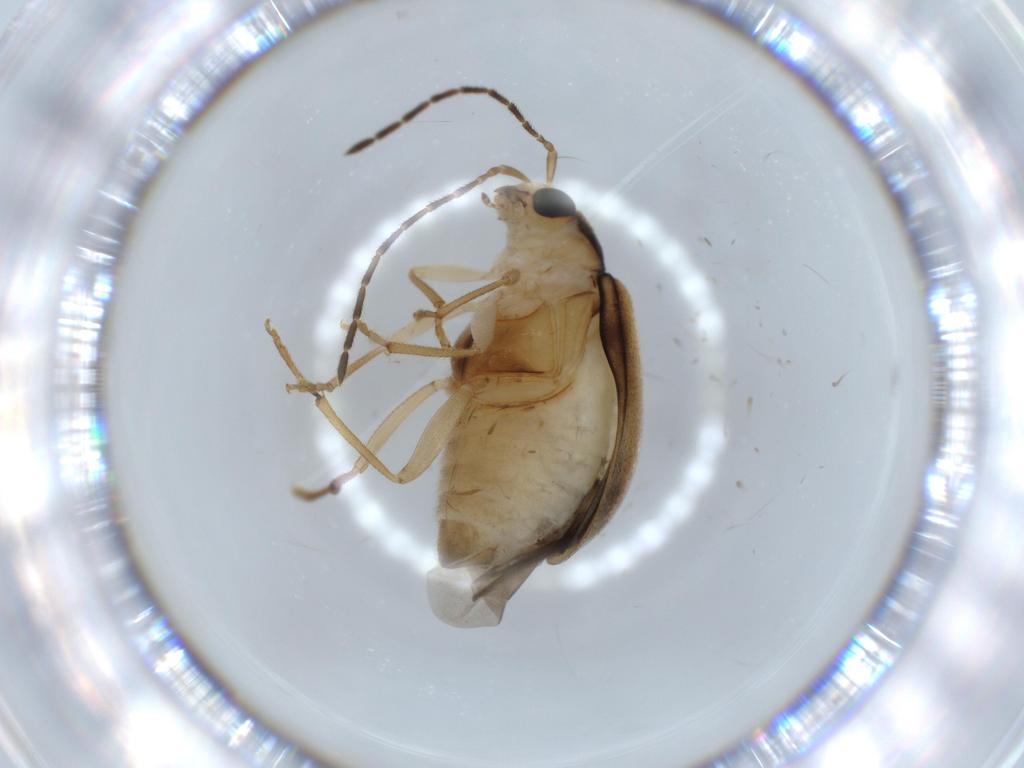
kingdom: Animalia
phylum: Arthropoda
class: Insecta
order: Coleoptera
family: Chrysomelidae
